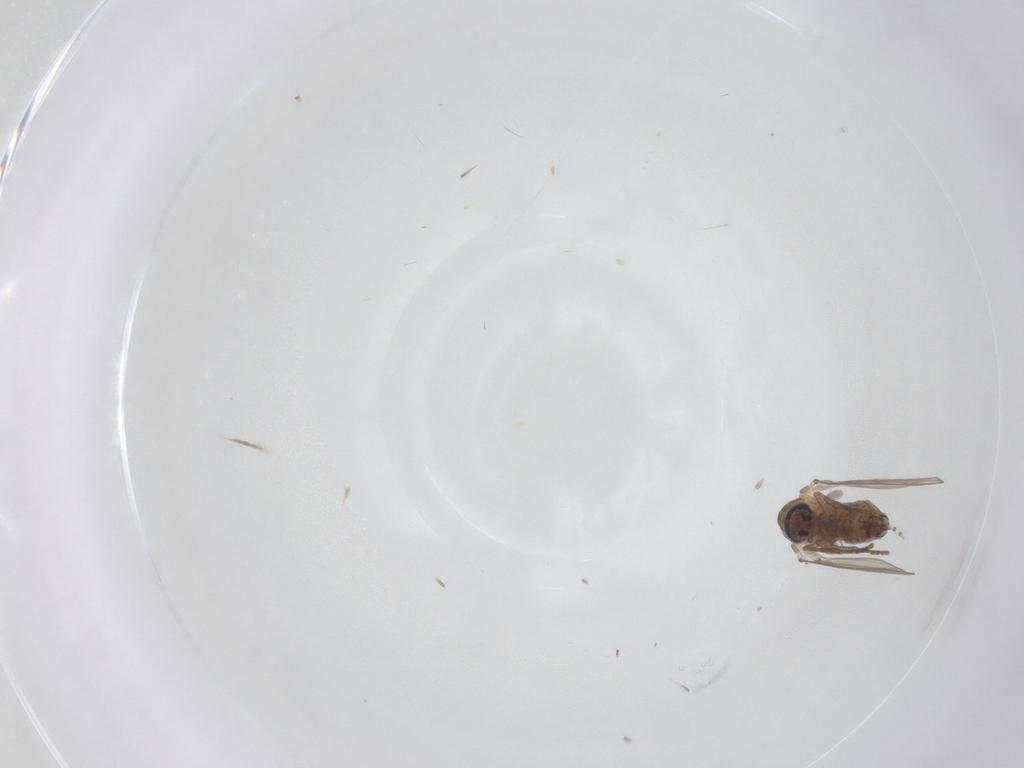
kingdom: Animalia
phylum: Arthropoda
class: Insecta
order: Diptera
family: Psychodidae
